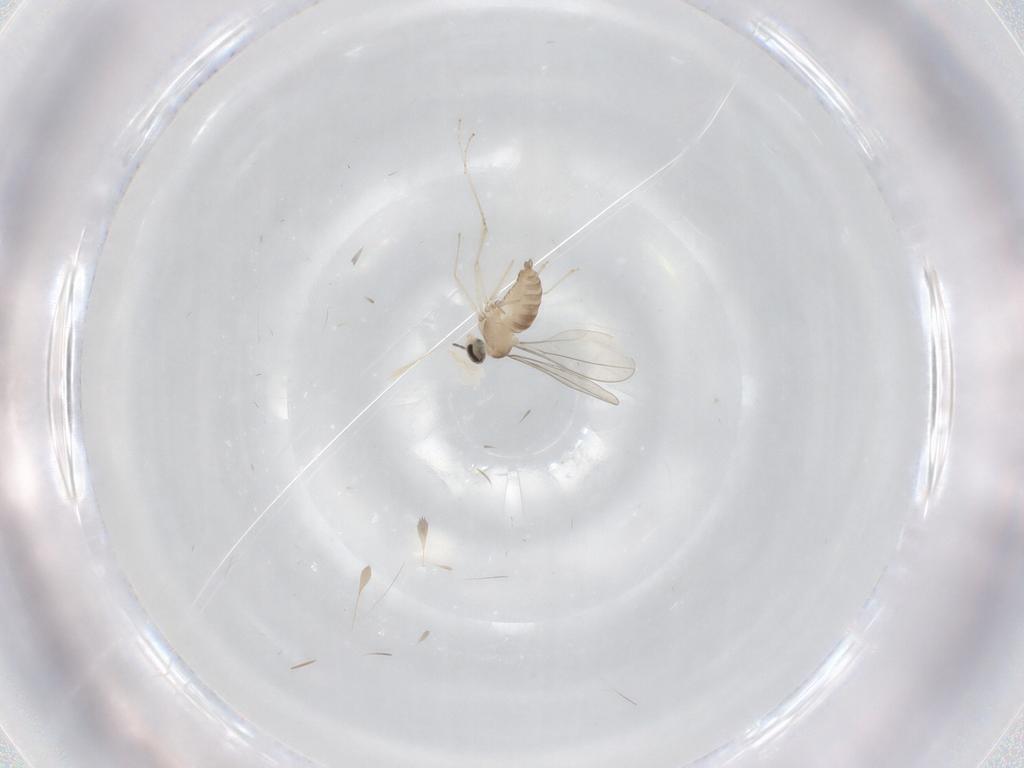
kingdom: Animalia
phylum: Arthropoda
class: Insecta
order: Diptera
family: Cecidomyiidae
